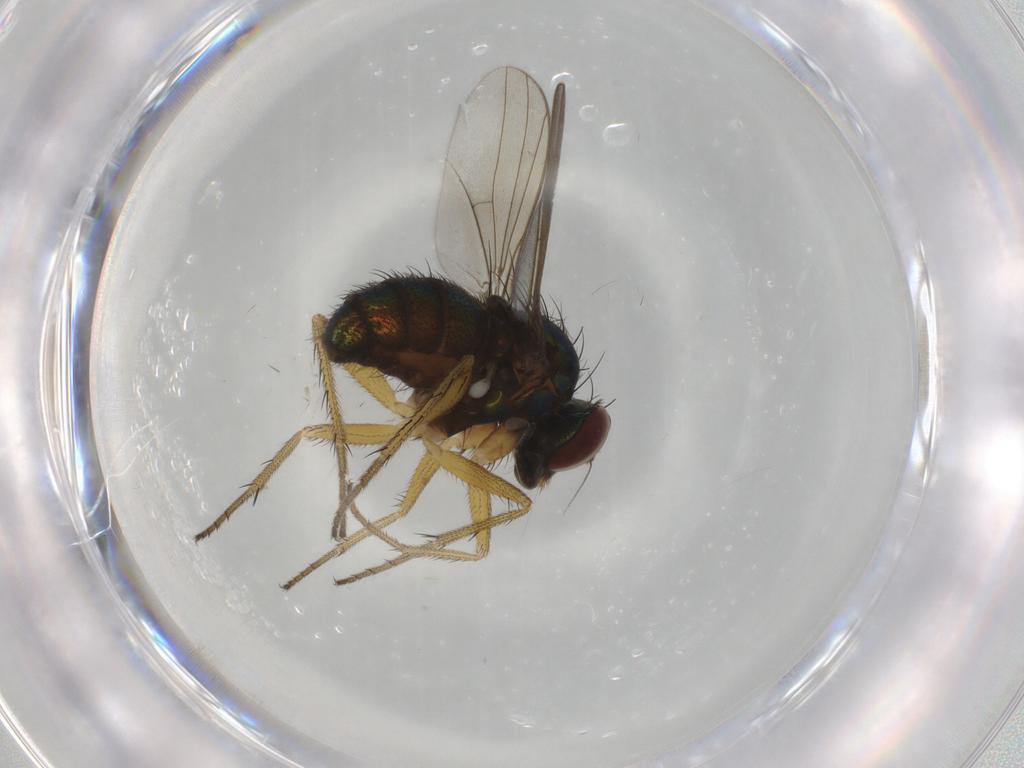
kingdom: Animalia
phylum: Arthropoda
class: Insecta
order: Diptera
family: Dolichopodidae
